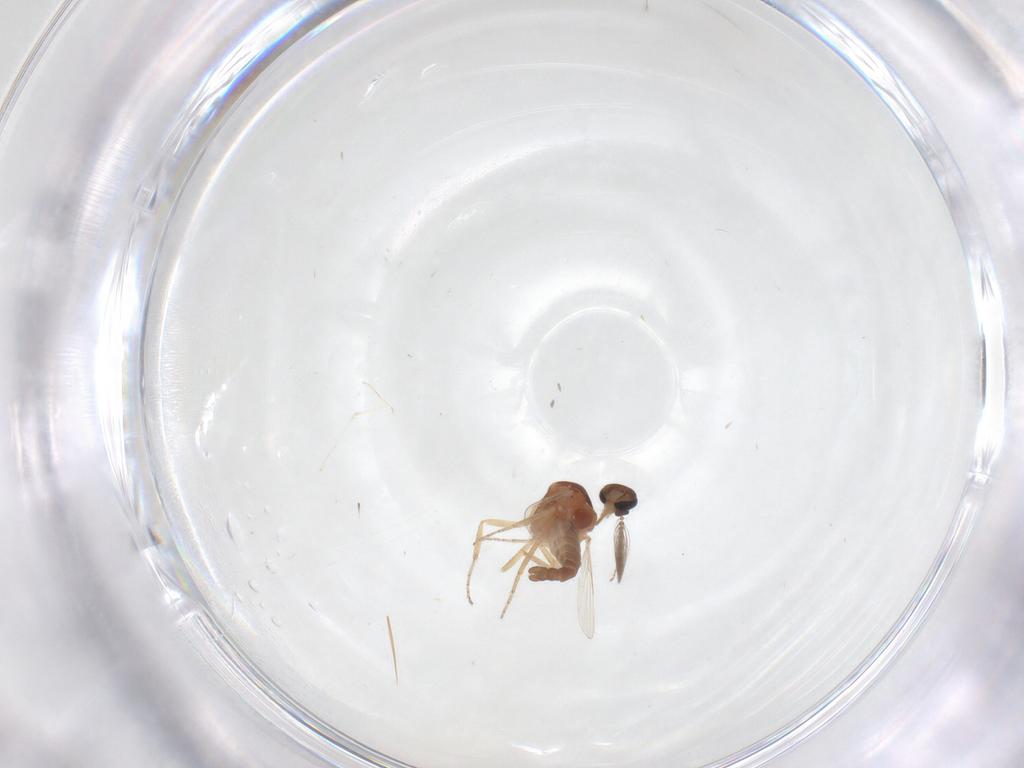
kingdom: Animalia
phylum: Arthropoda
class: Insecta
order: Diptera
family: Ceratopogonidae
